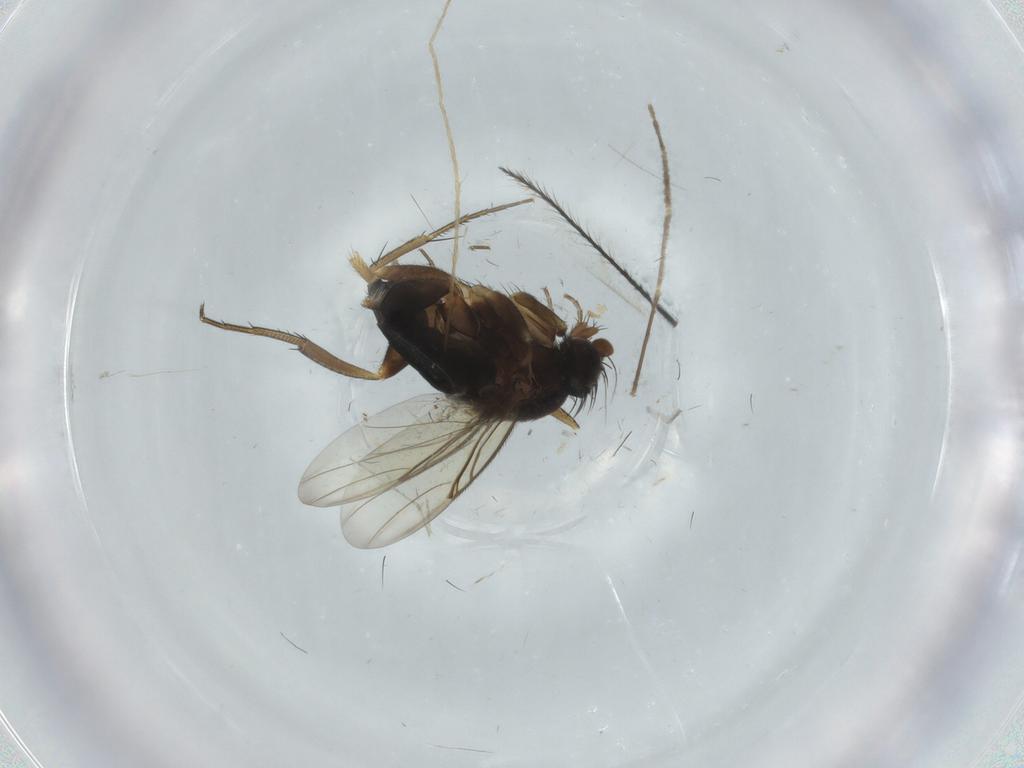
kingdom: Animalia
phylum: Arthropoda
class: Insecta
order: Diptera
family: Phoridae
